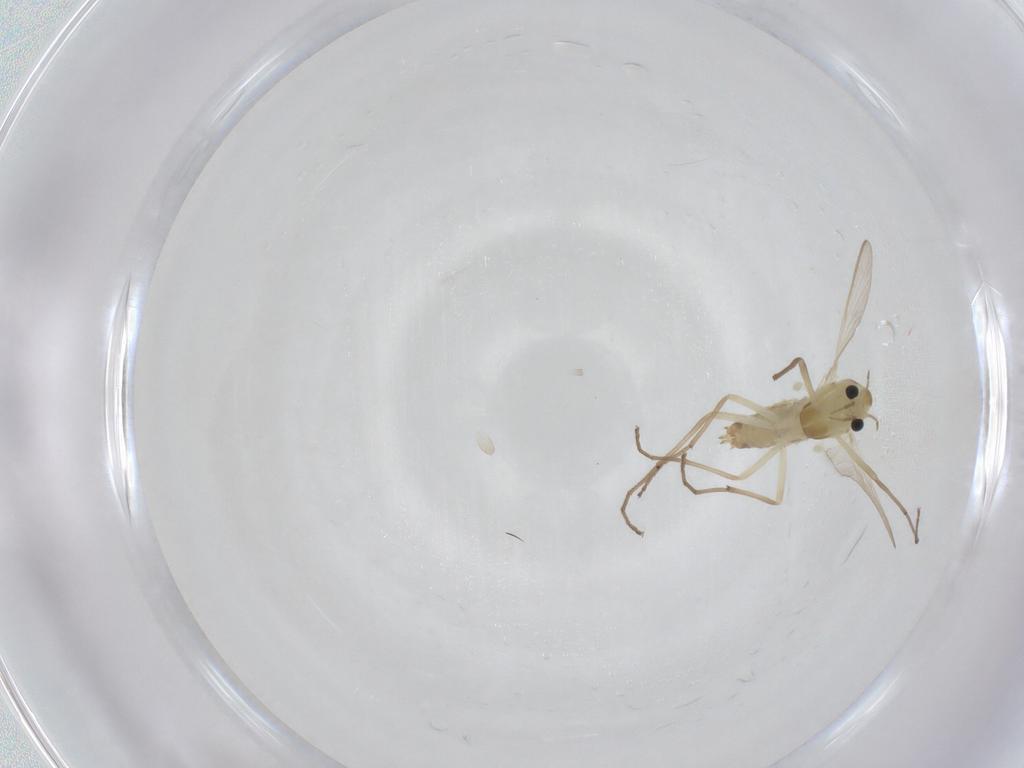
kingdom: Animalia
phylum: Arthropoda
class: Insecta
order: Diptera
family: Chironomidae
